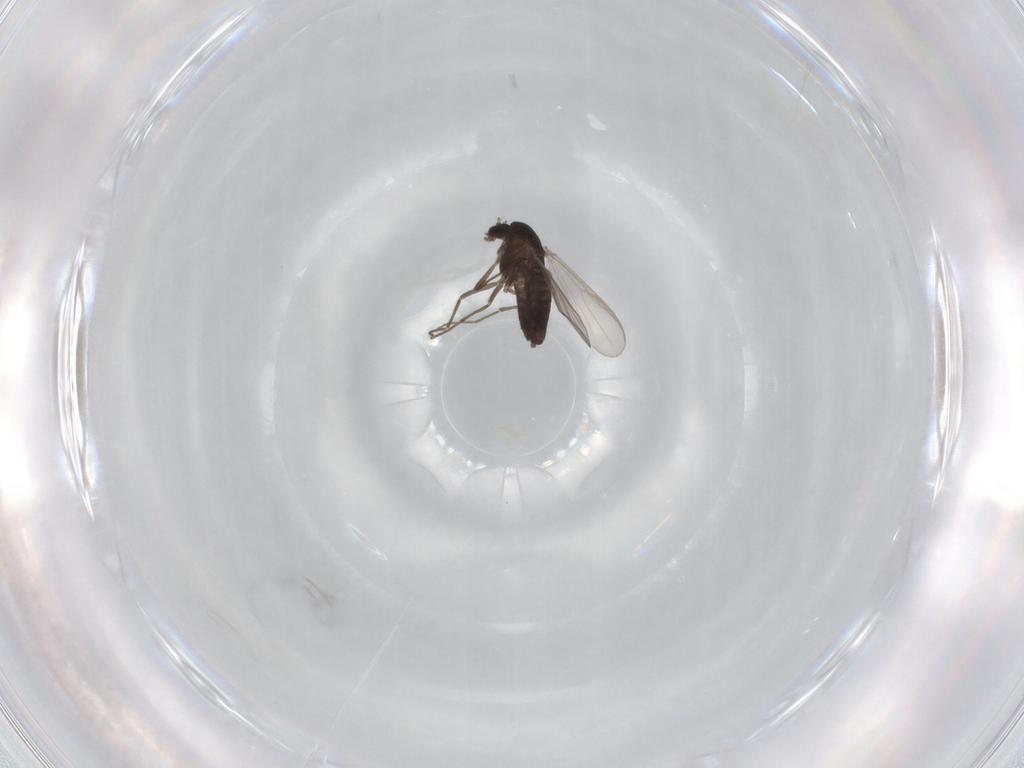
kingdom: Animalia
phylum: Arthropoda
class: Insecta
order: Diptera
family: Chironomidae
